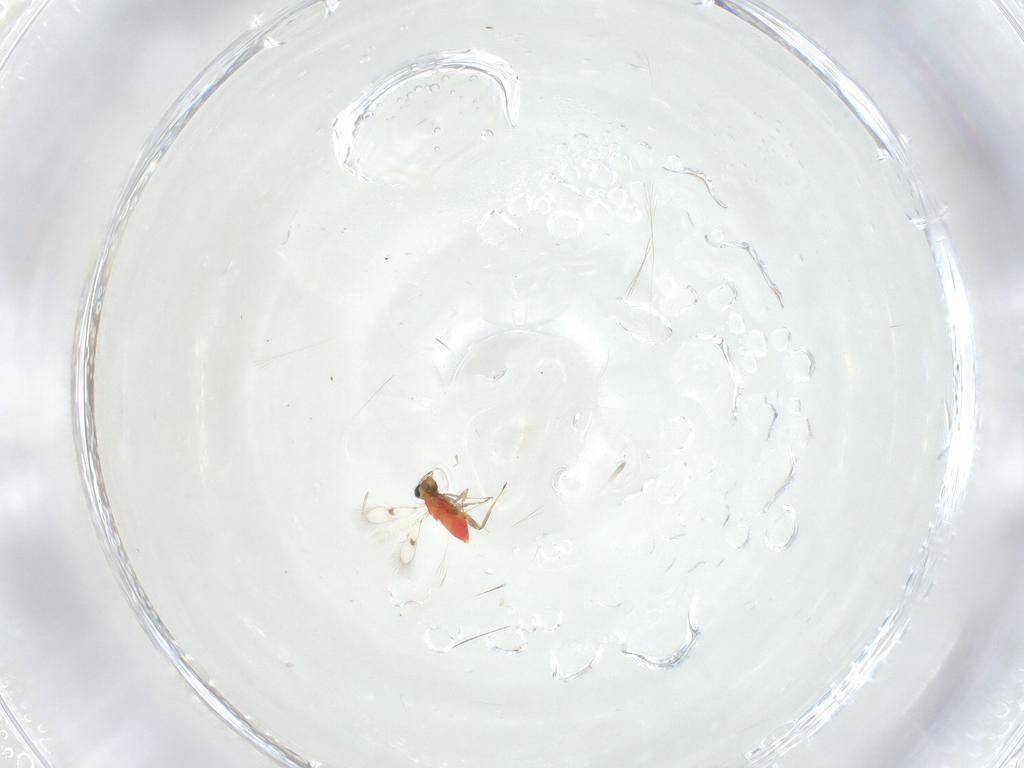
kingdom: Animalia
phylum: Arthropoda
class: Insecta
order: Hymenoptera
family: Trichogrammatidae
